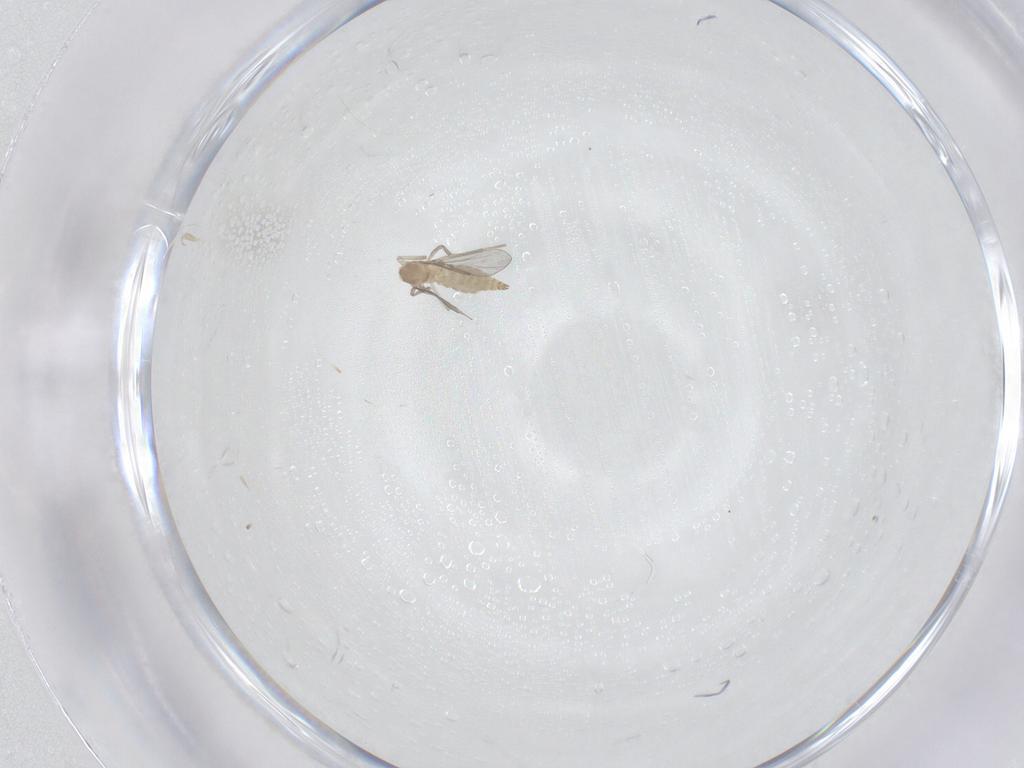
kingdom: Animalia
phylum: Arthropoda
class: Insecta
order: Diptera
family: Cecidomyiidae
